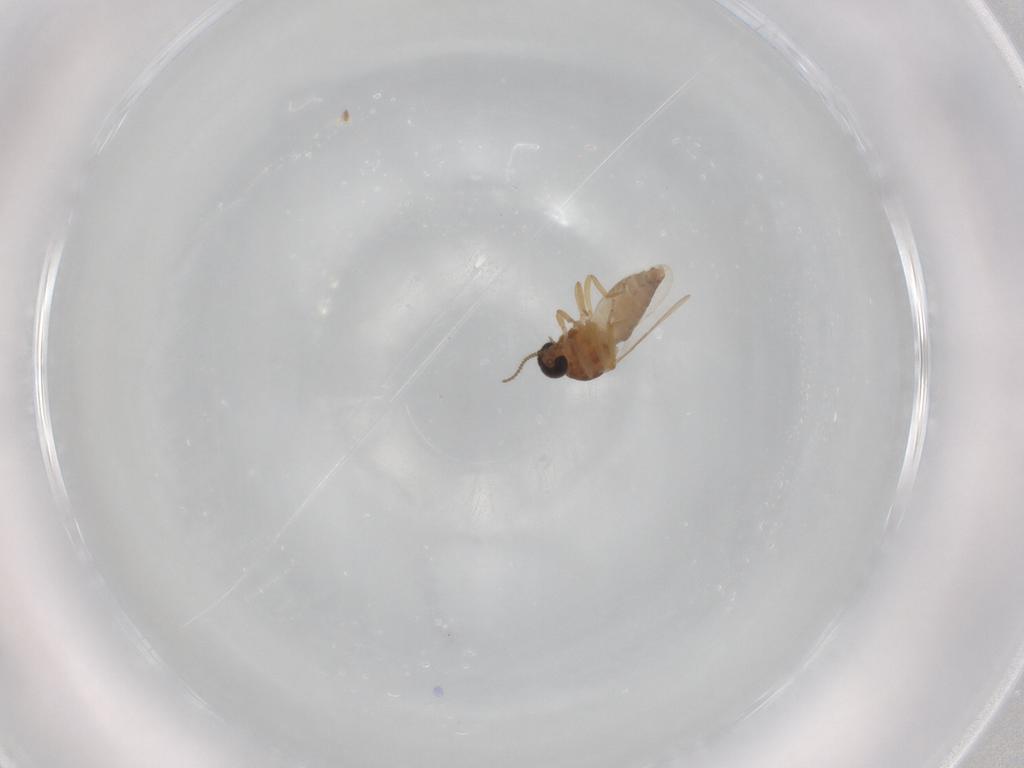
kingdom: Animalia
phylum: Arthropoda
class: Insecta
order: Diptera
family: Ceratopogonidae
